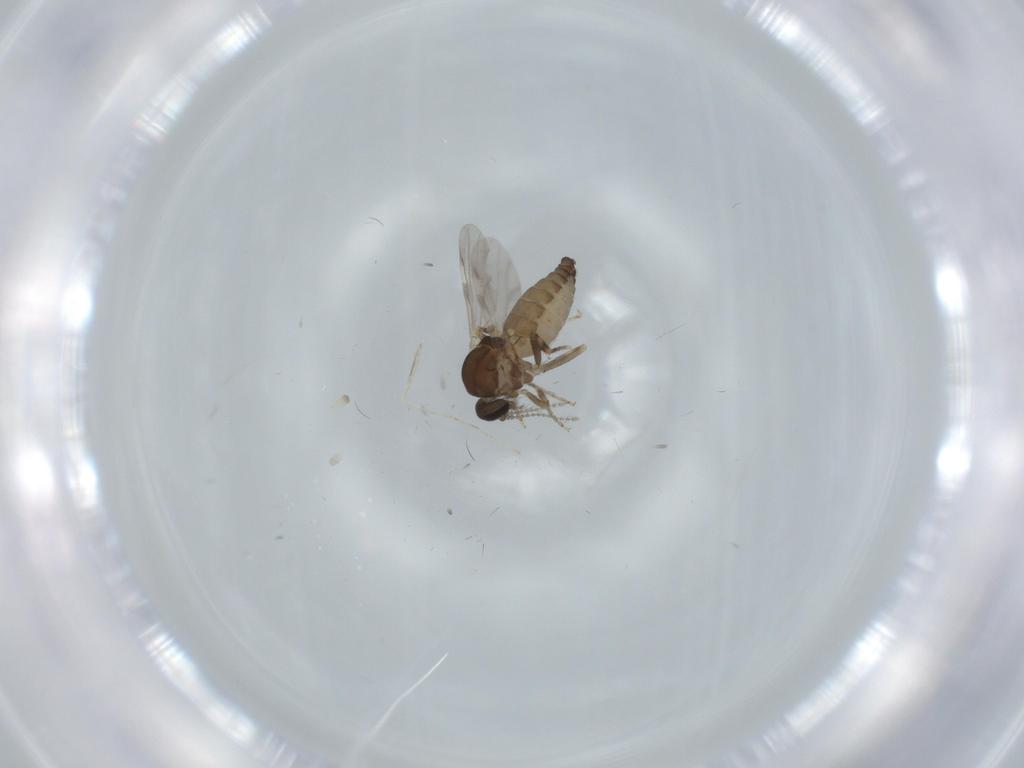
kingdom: Animalia
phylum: Arthropoda
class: Insecta
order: Diptera
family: Ceratopogonidae
